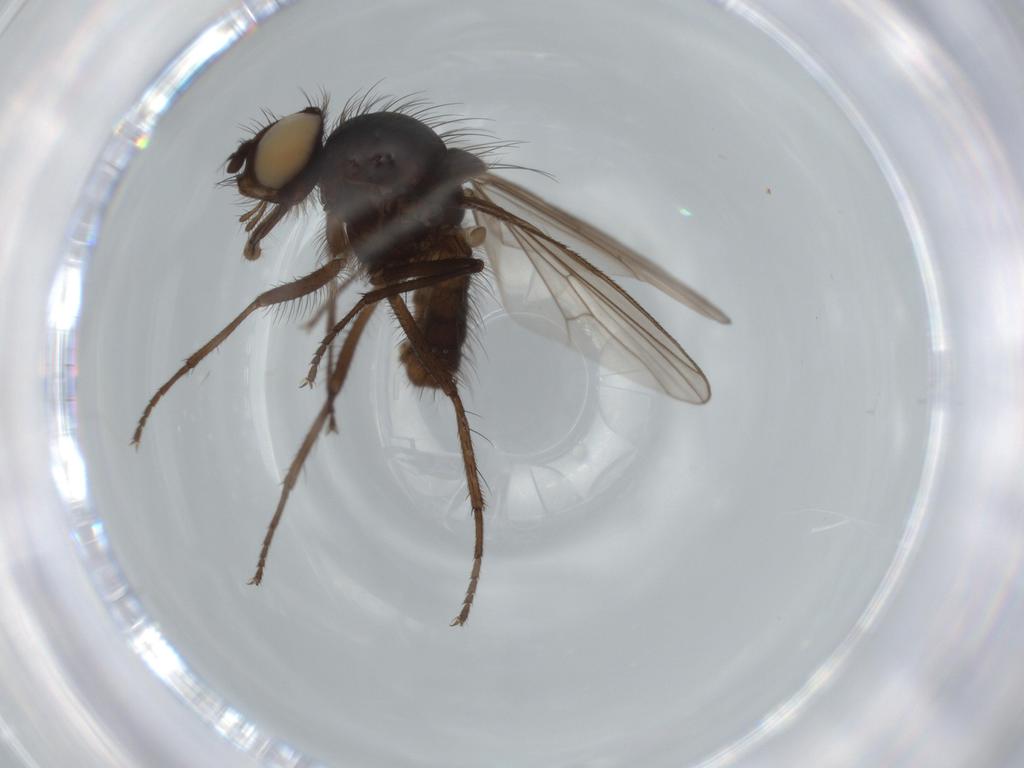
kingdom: Animalia
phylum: Arthropoda
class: Insecta
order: Diptera
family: Anthomyiidae
